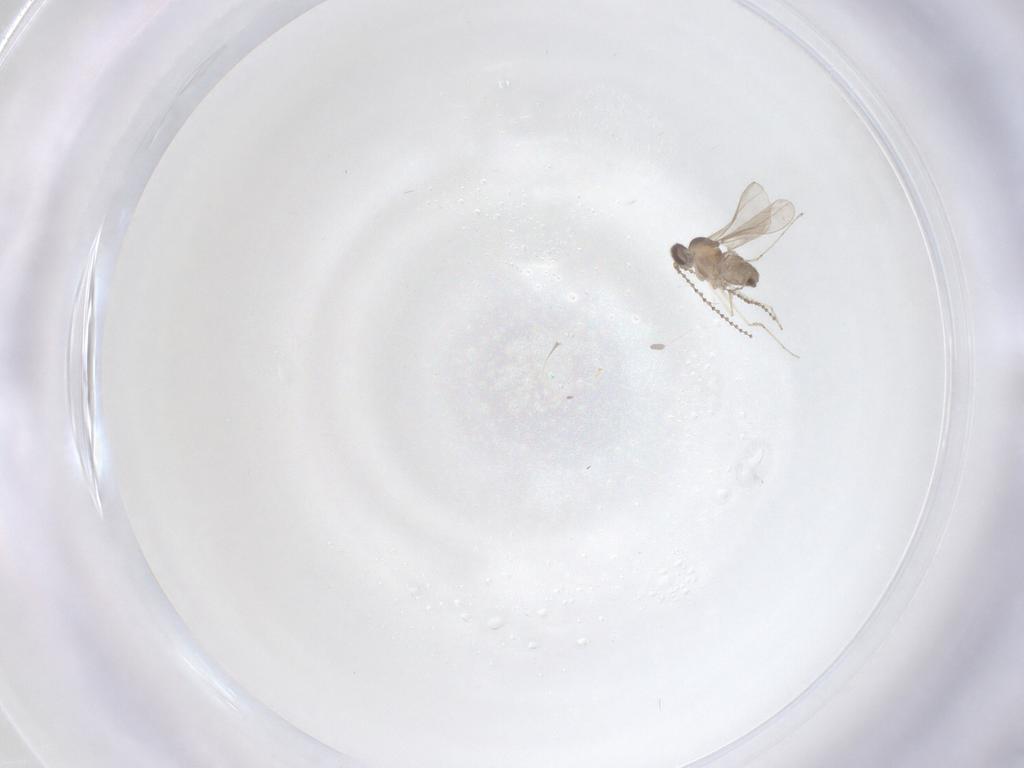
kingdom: Animalia
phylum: Arthropoda
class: Insecta
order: Diptera
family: Cecidomyiidae
